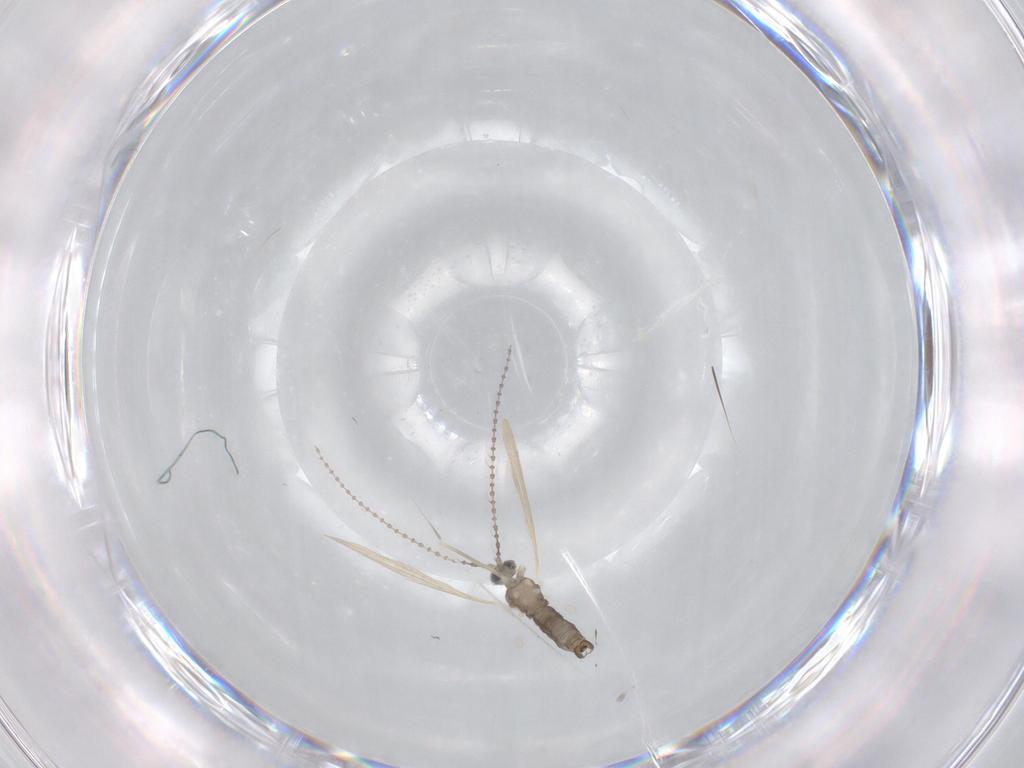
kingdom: Animalia
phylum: Arthropoda
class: Insecta
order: Diptera
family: Cecidomyiidae
